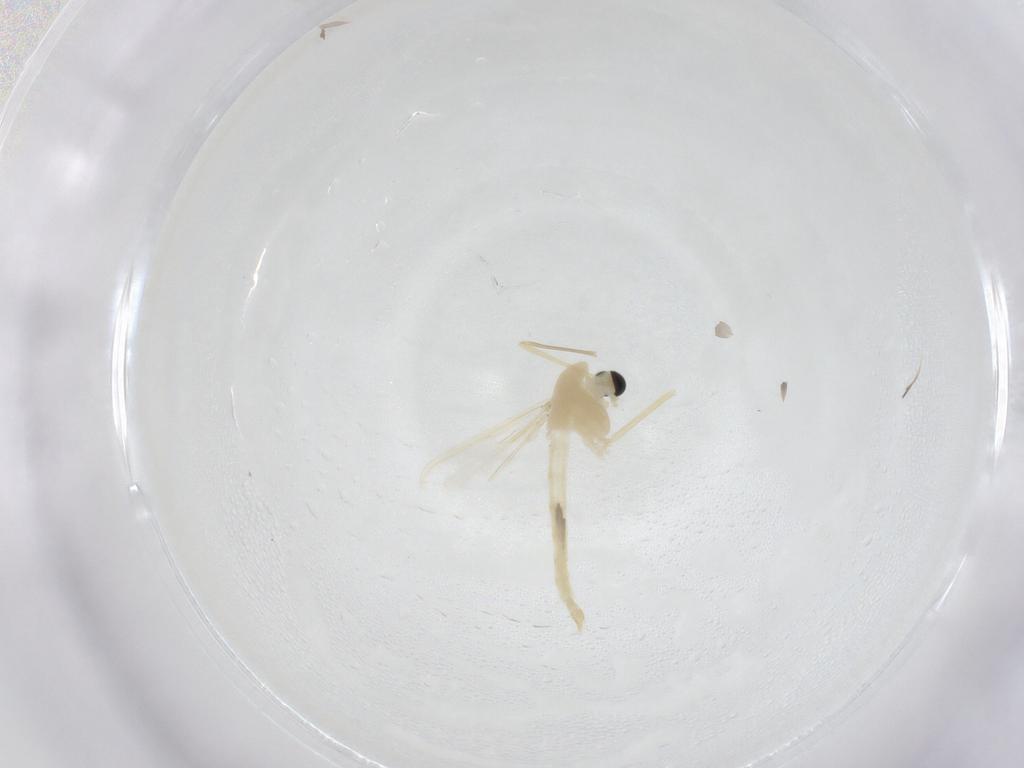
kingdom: Animalia
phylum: Arthropoda
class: Insecta
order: Diptera
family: Chironomidae
